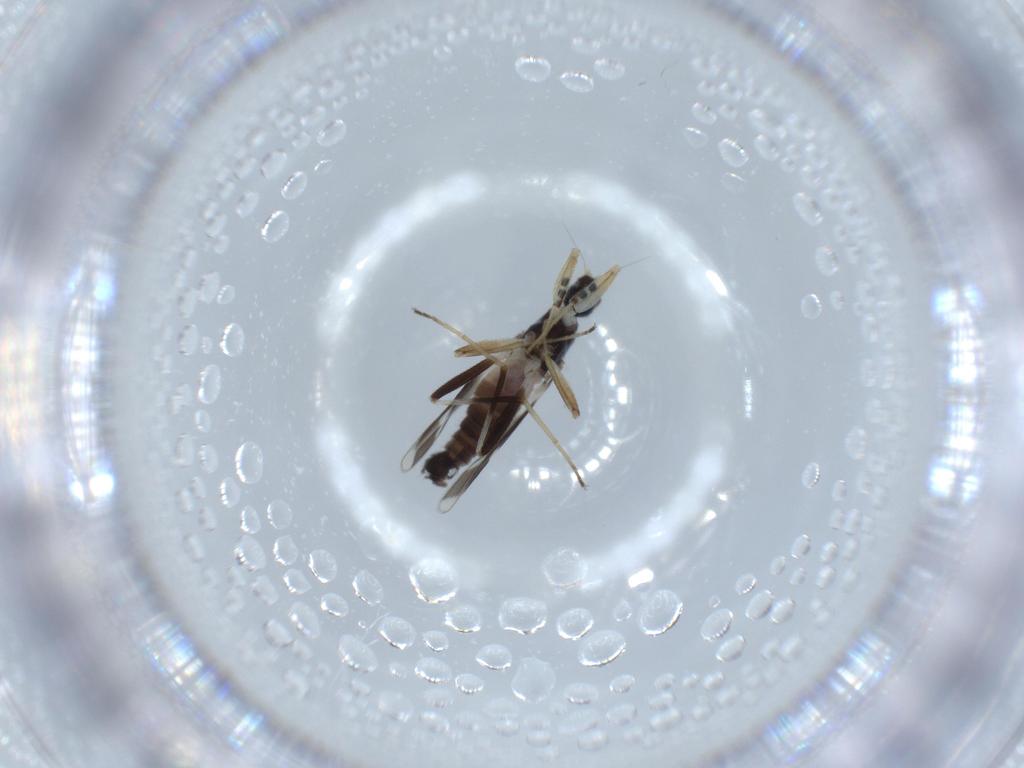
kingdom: Animalia
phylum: Arthropoda
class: Insecta
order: Diptera
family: Hybotidae
